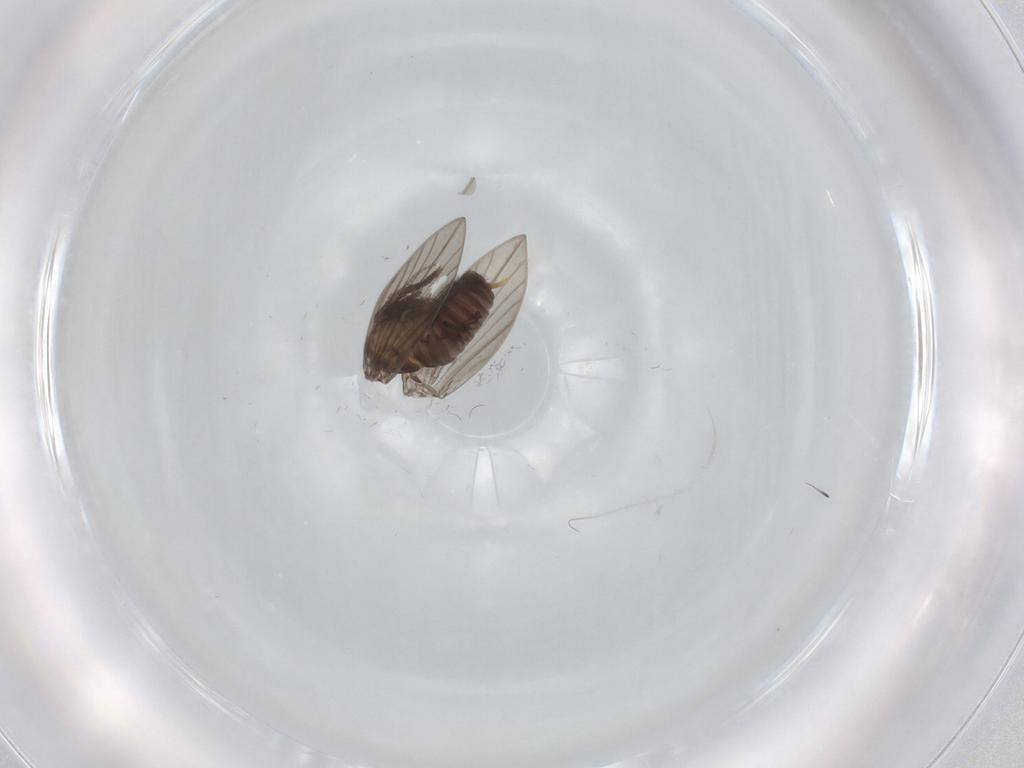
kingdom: Animalia
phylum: Arthropoda
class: Insecta
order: Diptera
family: Psychodidae
